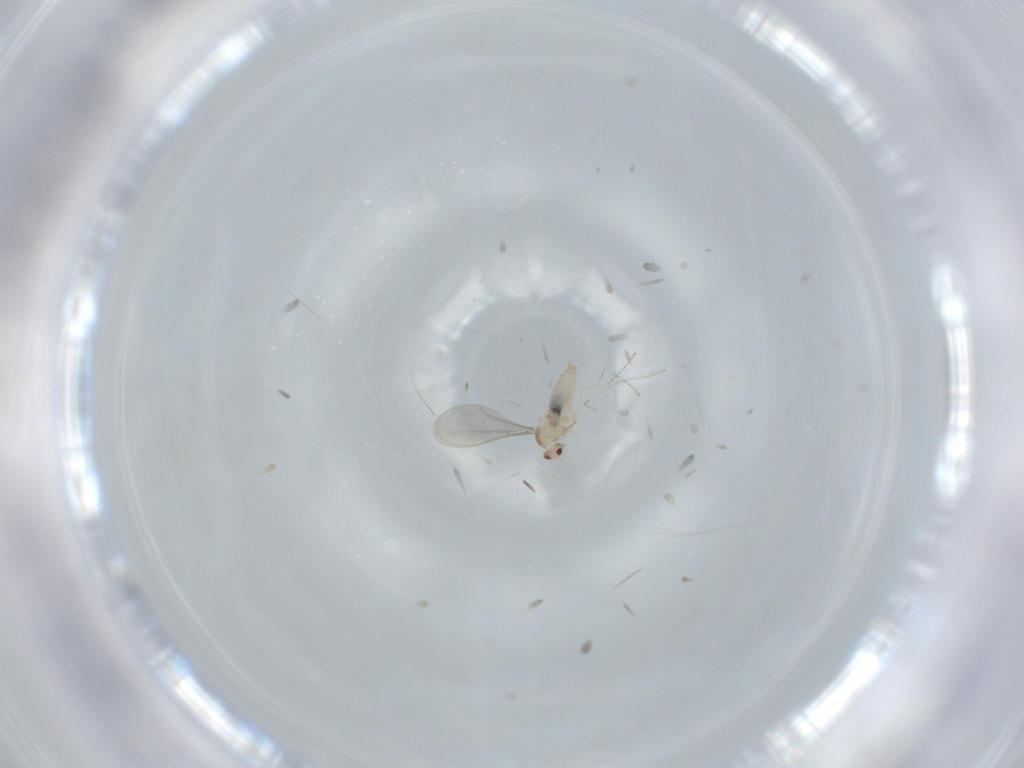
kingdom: Animalia
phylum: Arthropoda
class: Insecta
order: Diptera
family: Cecidomyiidae
